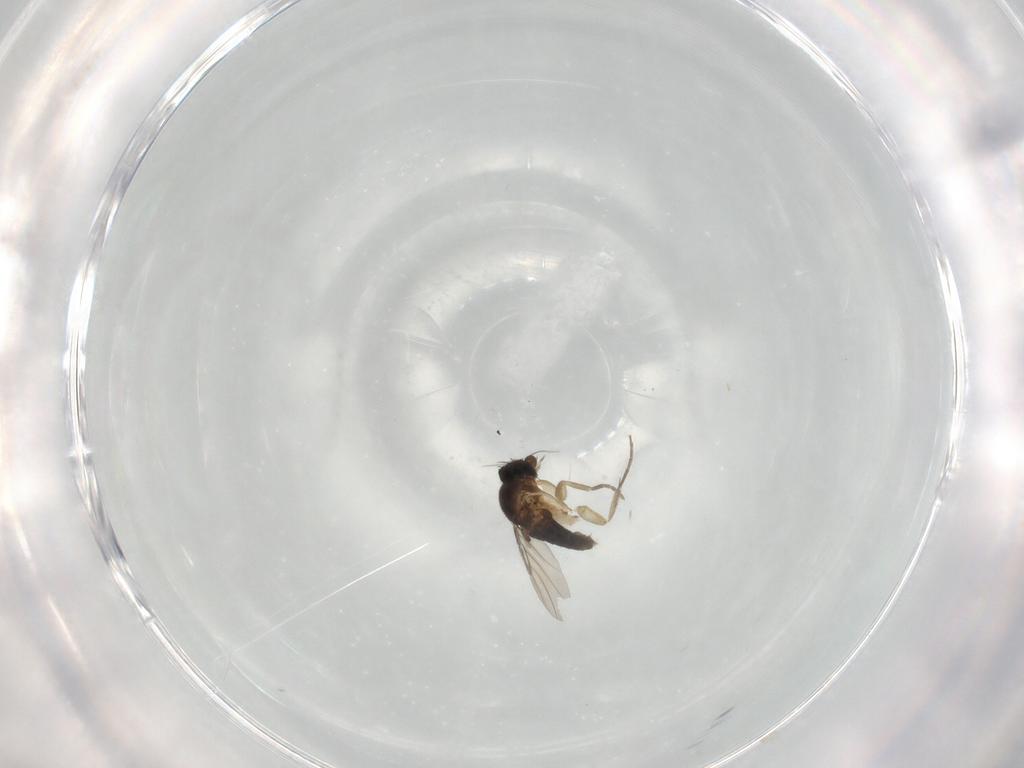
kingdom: Animalia
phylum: Arthropoda
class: Insecta
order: Diptera
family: Phoridae
